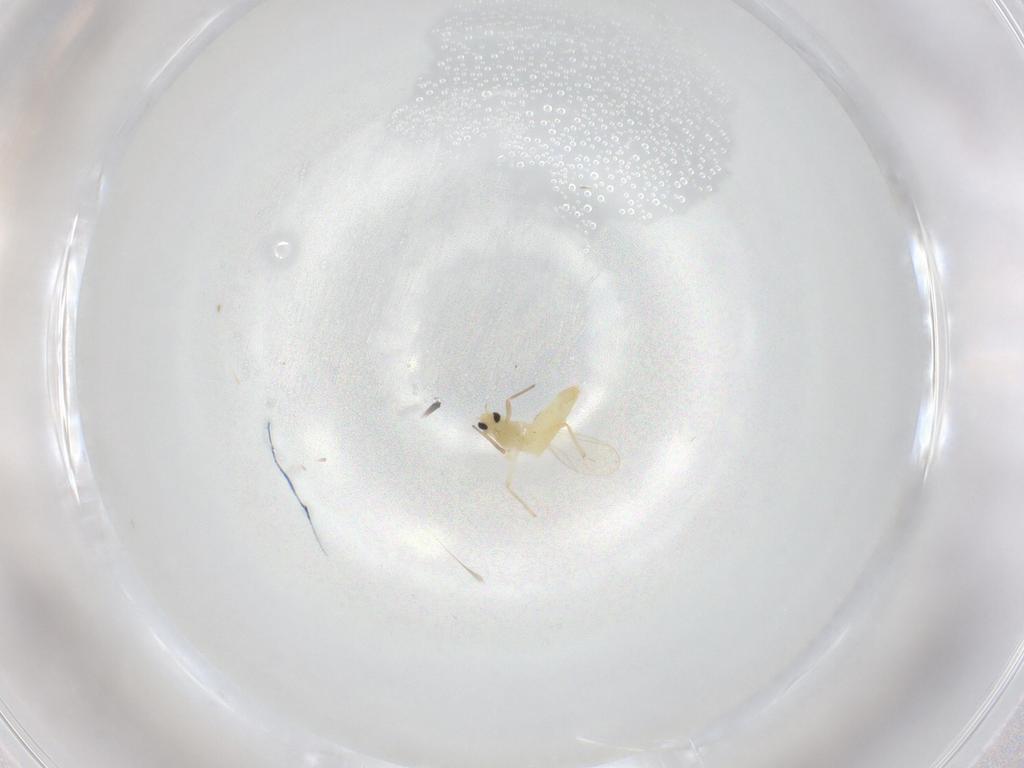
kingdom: Animalia
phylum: Arthropoda
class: Insecta
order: Diptera
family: Chironomidae
